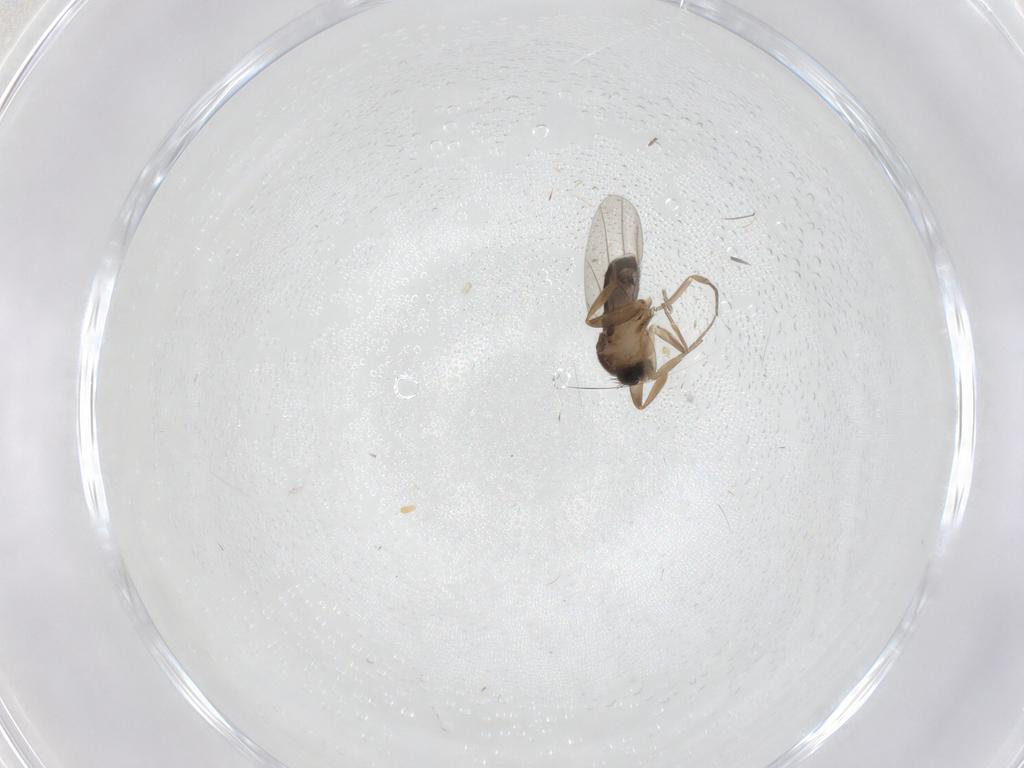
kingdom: Animalia
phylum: Arthropoda
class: Insecta
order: Diptera
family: Phoridae
